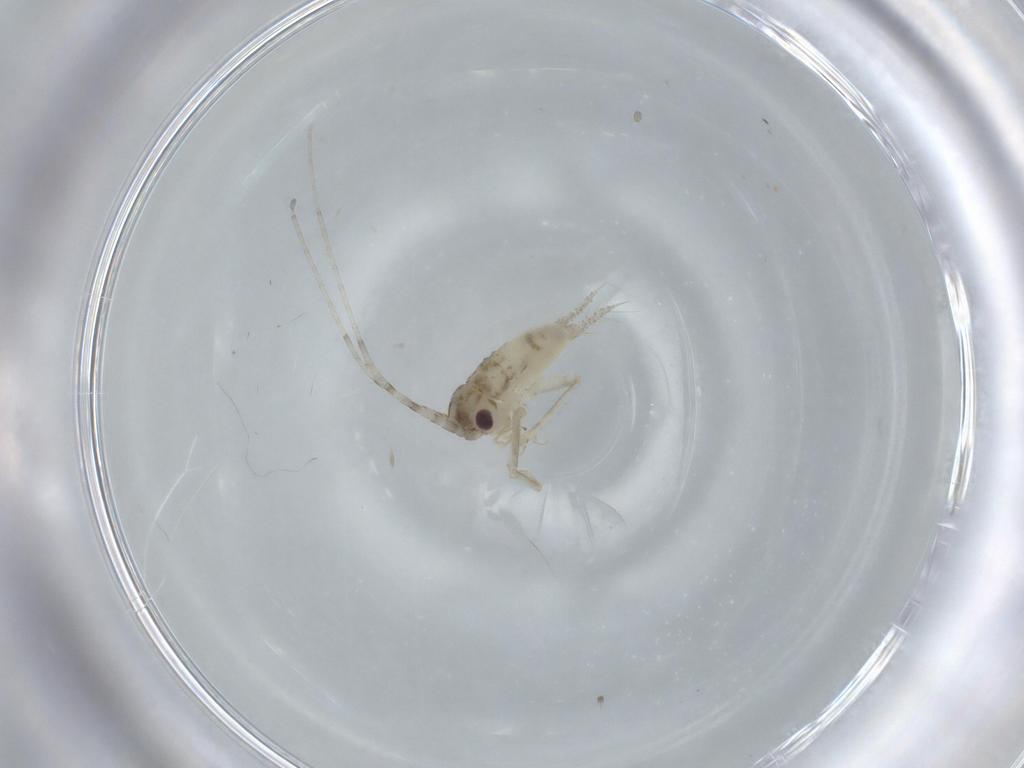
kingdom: Animalia
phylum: Arthropoda
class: Insecta
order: Orthoptera
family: Trigonidiidae
